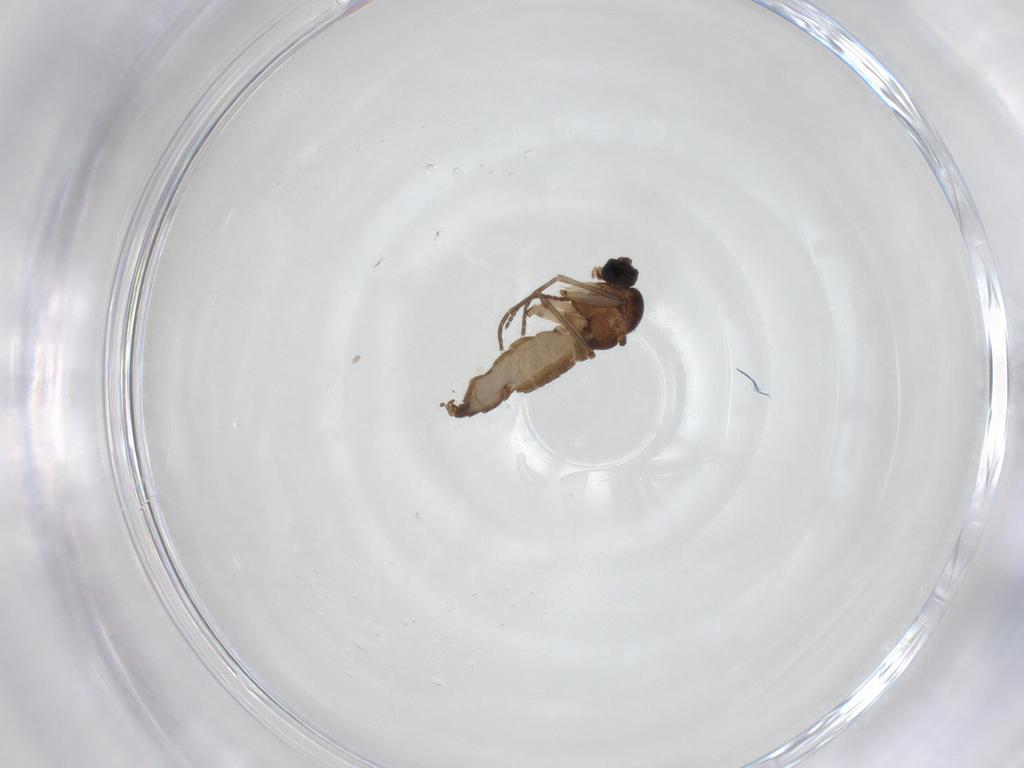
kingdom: Animalia
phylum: Arthropoda
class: Insecta
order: Diptera
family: Sciaridae
